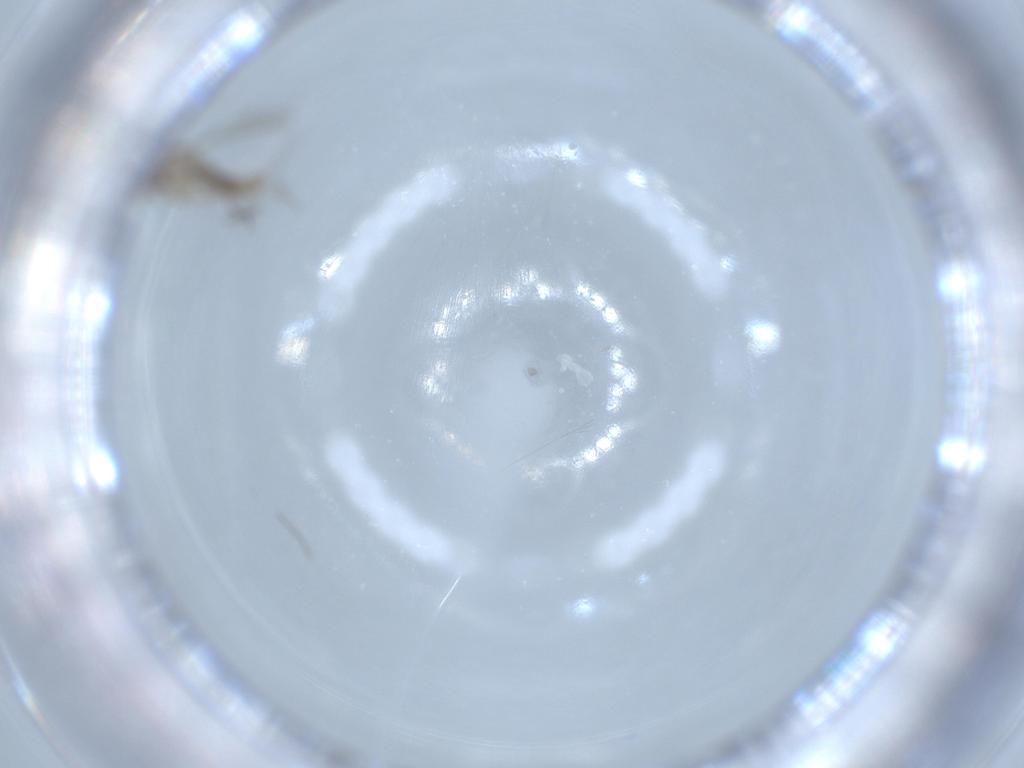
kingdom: Animalia
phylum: Arthropoda
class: Insecta
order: Diptera
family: Chironomidae
